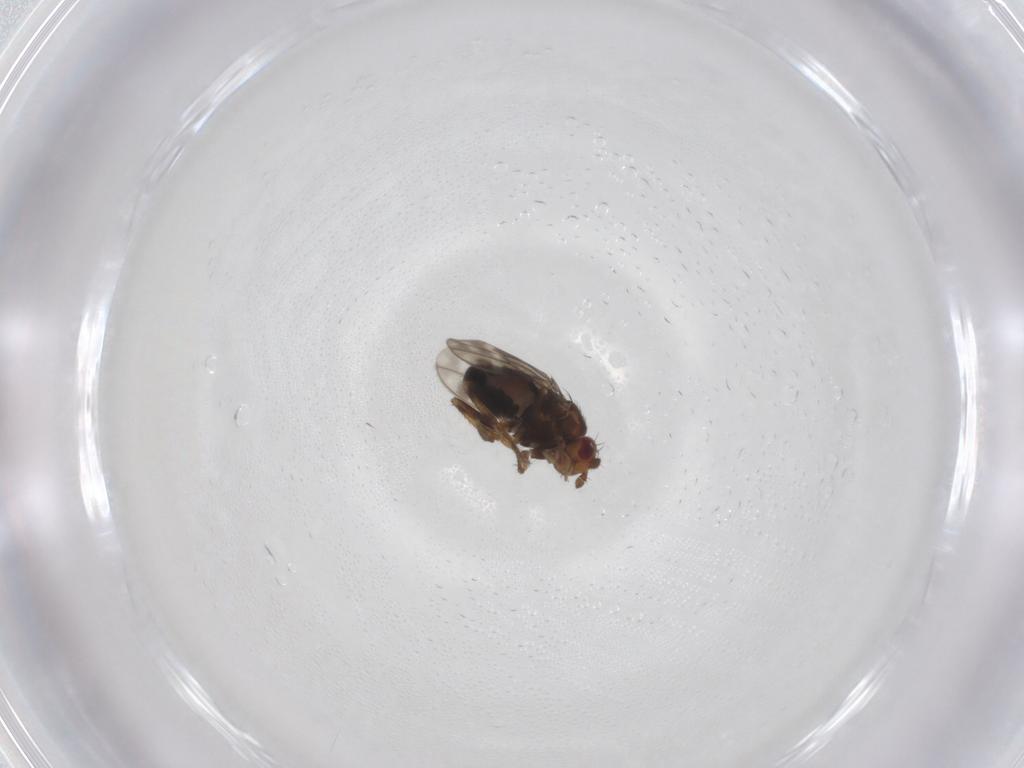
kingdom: Animalia
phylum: Arthropoda
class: Insecta
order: Diptera
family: Sphaeroceridae
